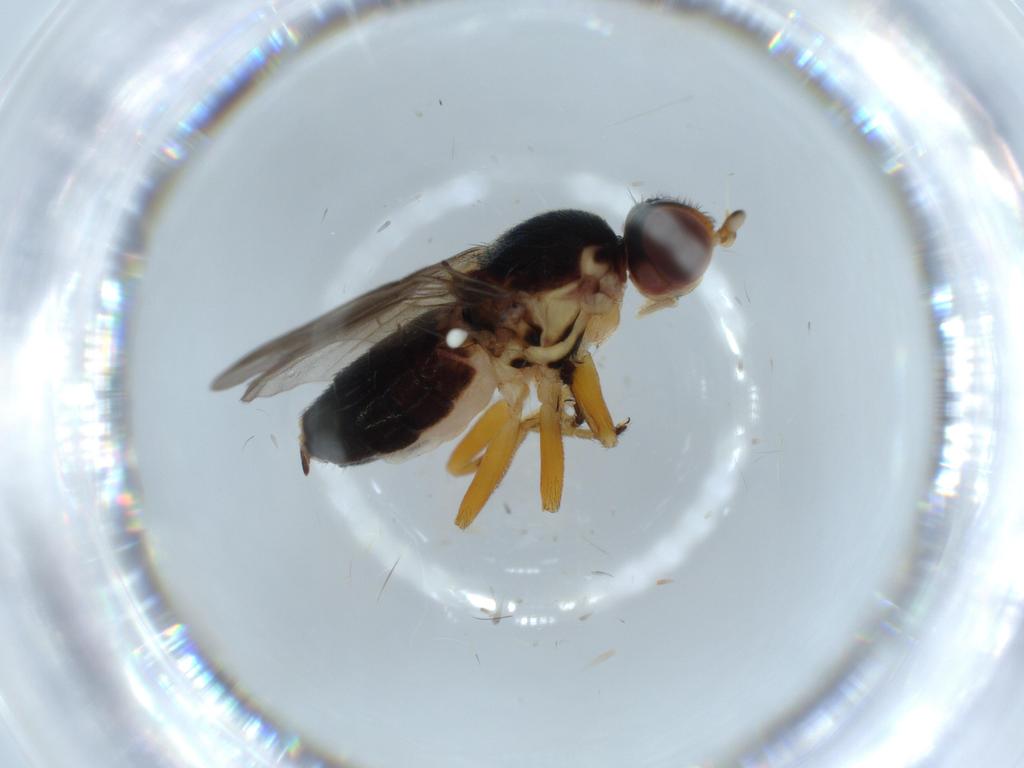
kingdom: Animalia
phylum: Arthropoda
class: Insecta
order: Diptera
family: Chloropidae
